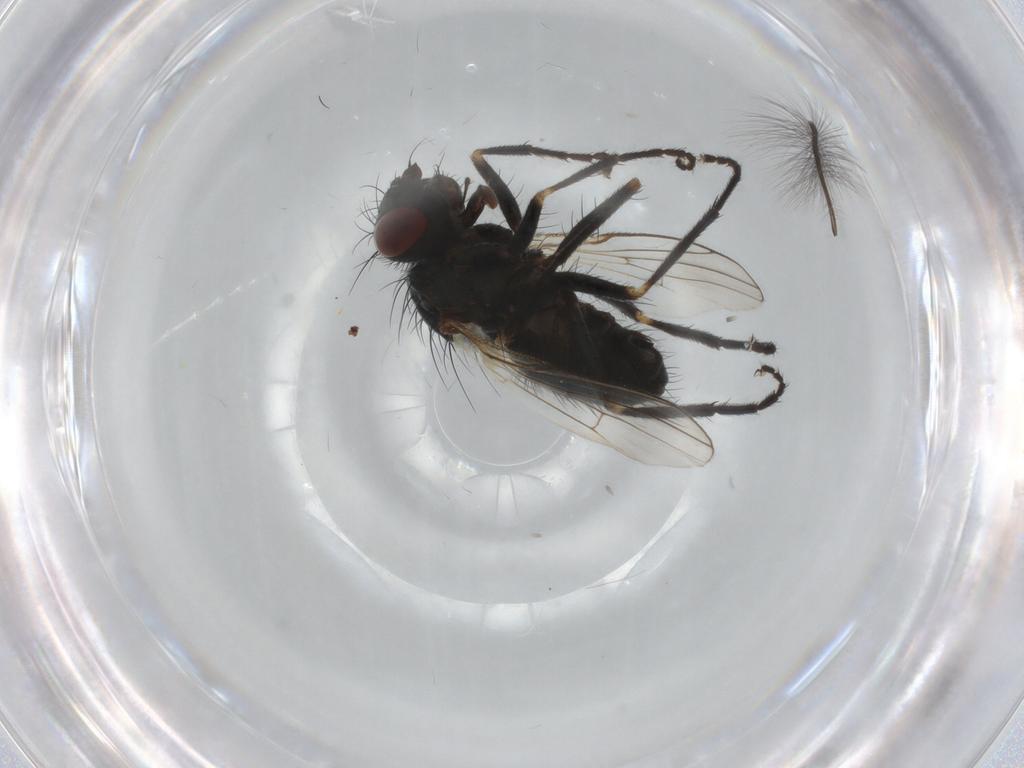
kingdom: Animalia
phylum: Arthropoda
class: Insecta
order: Diptera
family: Muscidae
